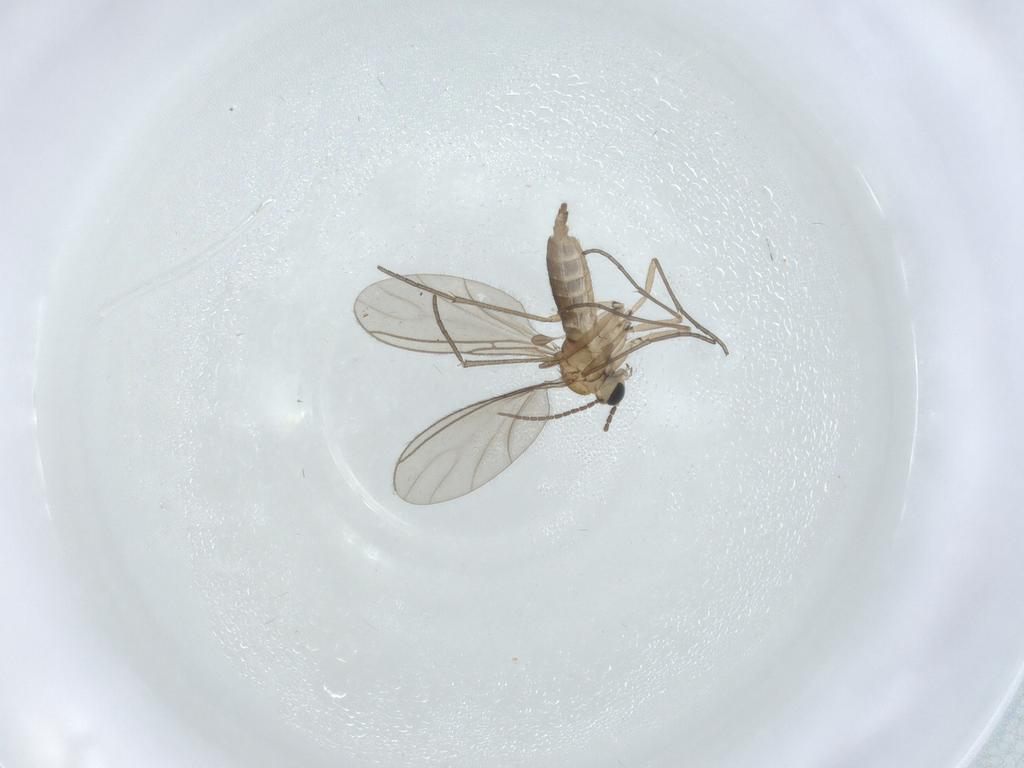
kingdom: Animalia
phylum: Arthropoda
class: Insecta
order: Diptera
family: Sciaridae
